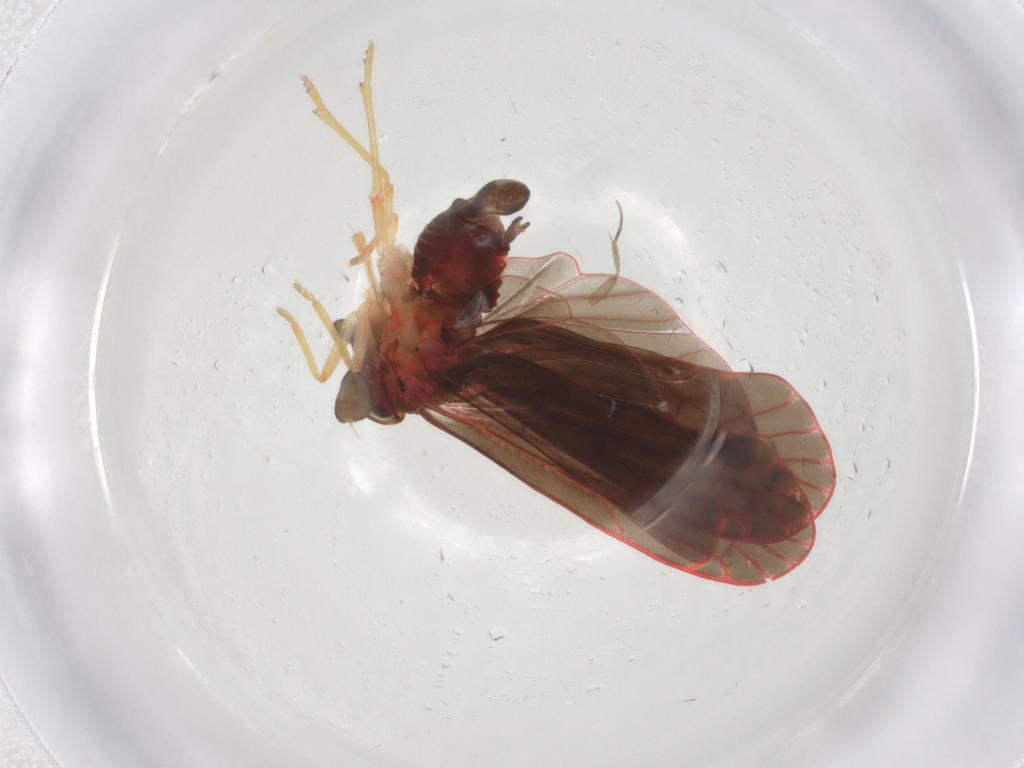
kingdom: Animalia
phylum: Arthropoda
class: Insecta
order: Hemiptera
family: Derbidae
